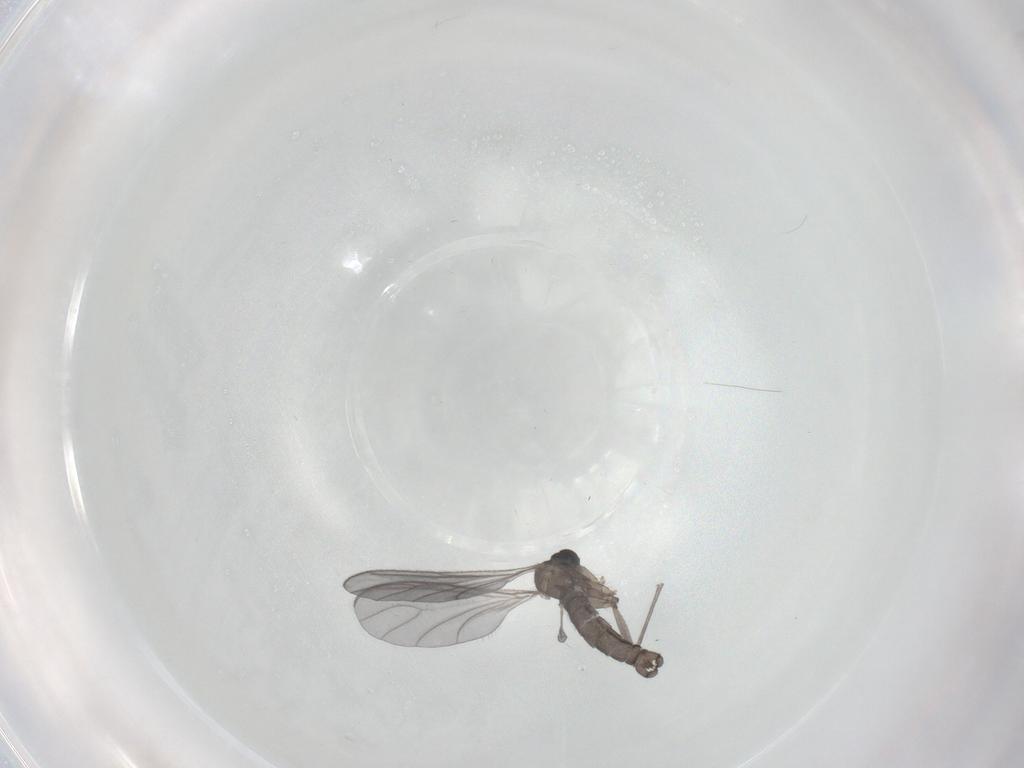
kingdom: Animalia
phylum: Arthropoda
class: Insecta
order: Diptera
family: Sciaridae
